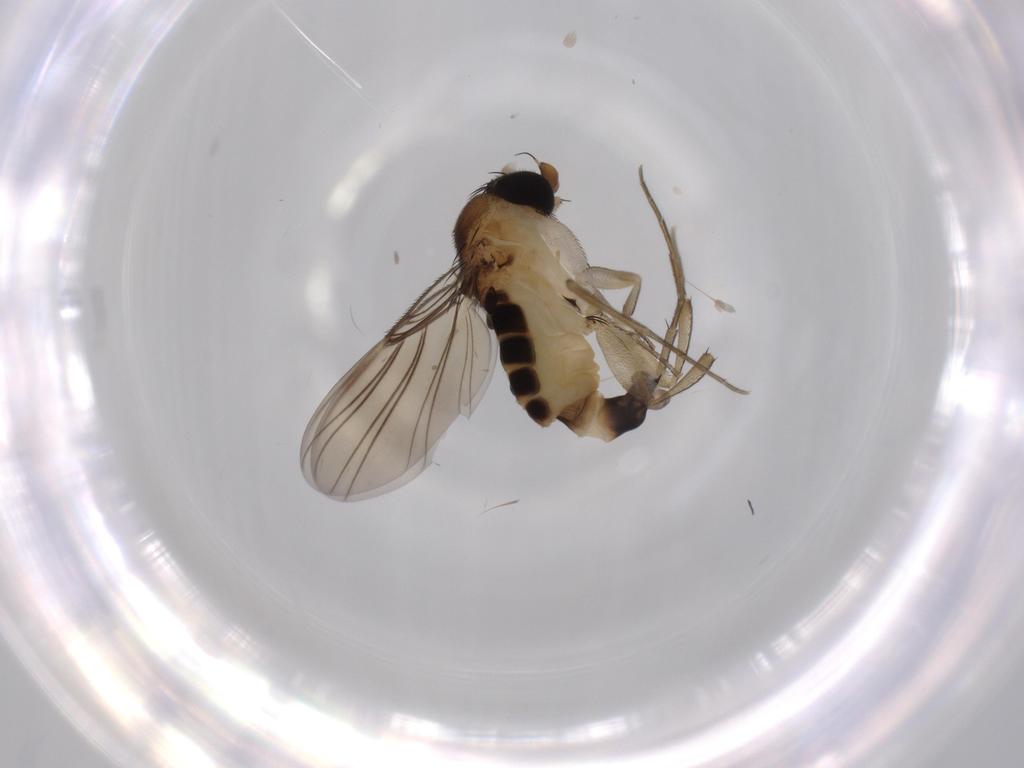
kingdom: Animalia
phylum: Arthropoda
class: Insecta
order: Diptera
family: Phoridae
